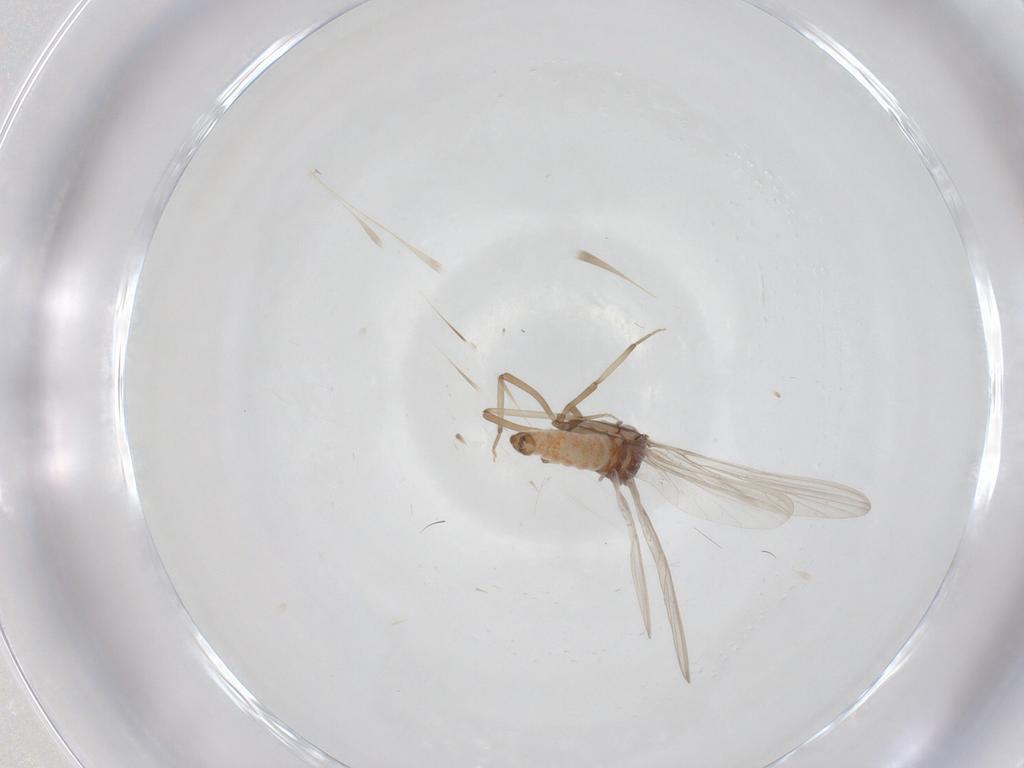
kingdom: Animalia
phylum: Arthropoda
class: Insecta
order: Neuroptera
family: Coniopterygidae
